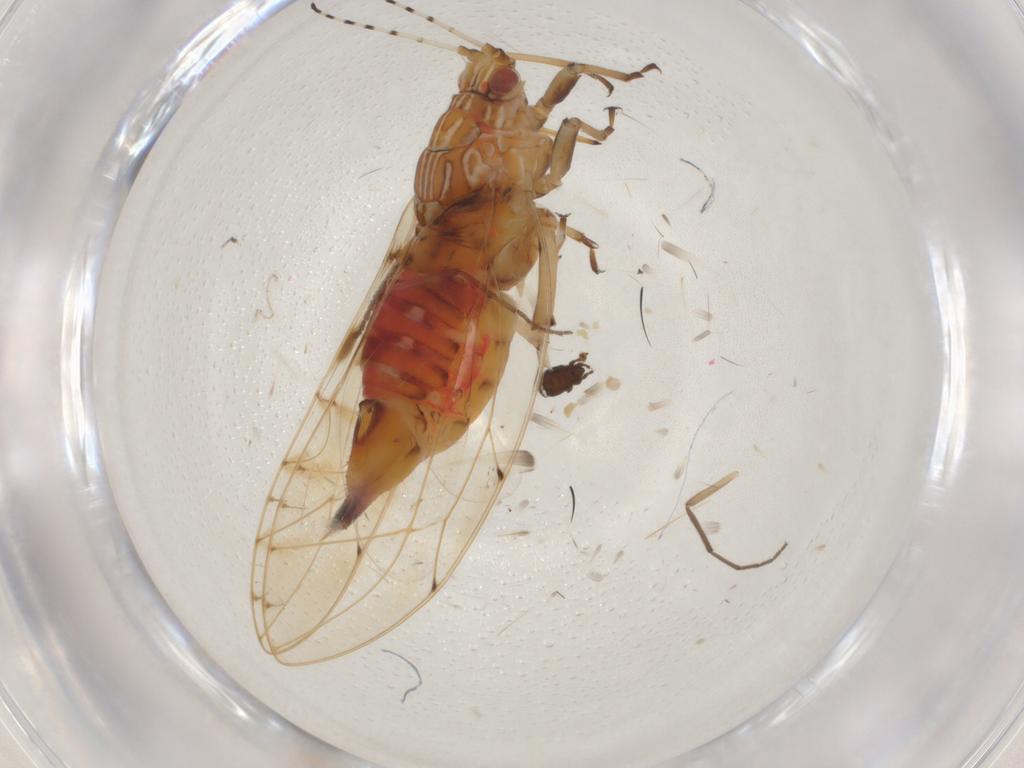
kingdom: Animalia
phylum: Arthropoda
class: Insecta
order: Diptera
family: Chironomidae
